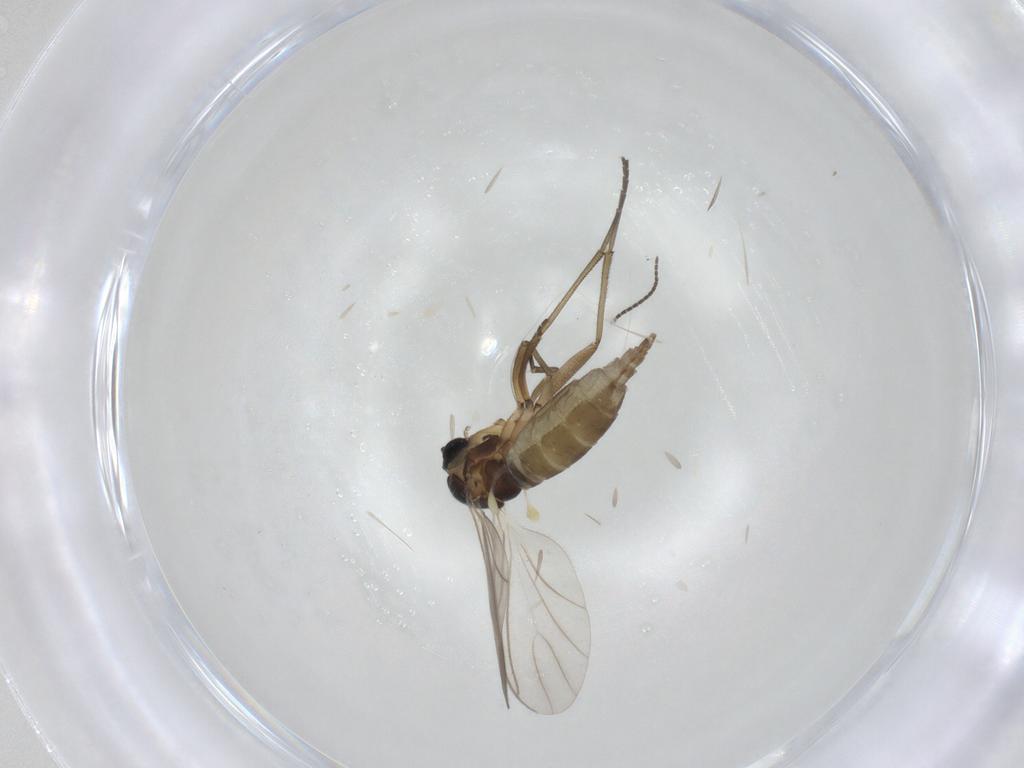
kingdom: Animalia
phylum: Arthropoda
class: Insecta
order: Diptera
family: Sciaridae
